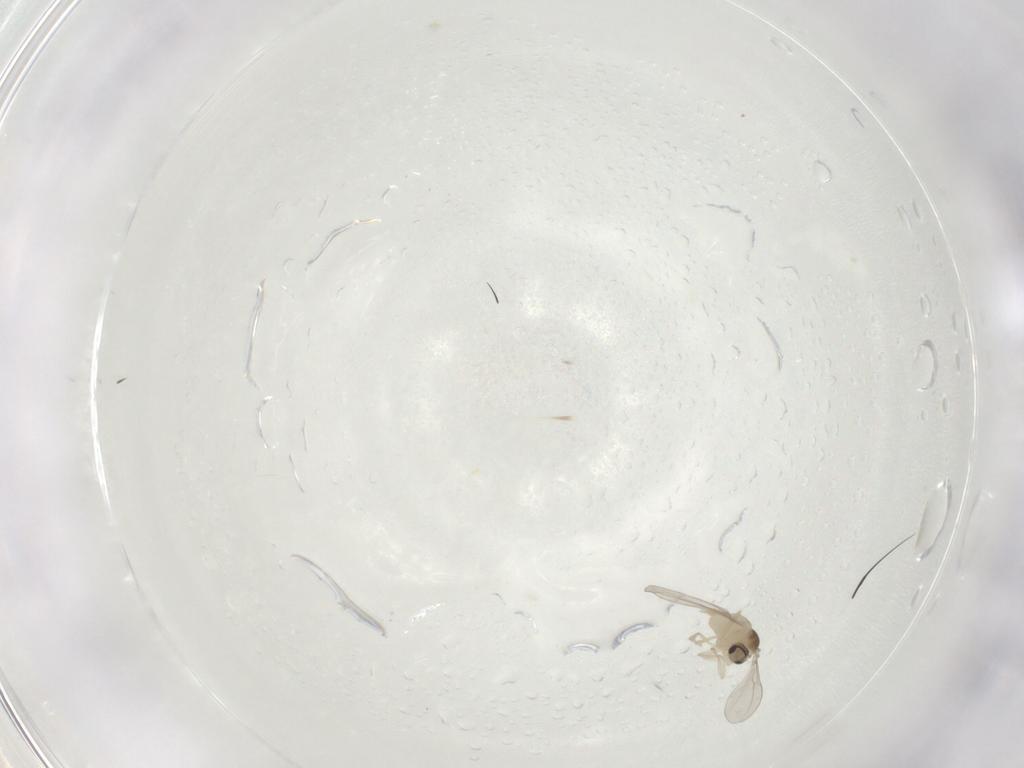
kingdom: Animalia
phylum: Arthropoda
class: Insecta
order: Diptera
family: Cecidomyiidae
